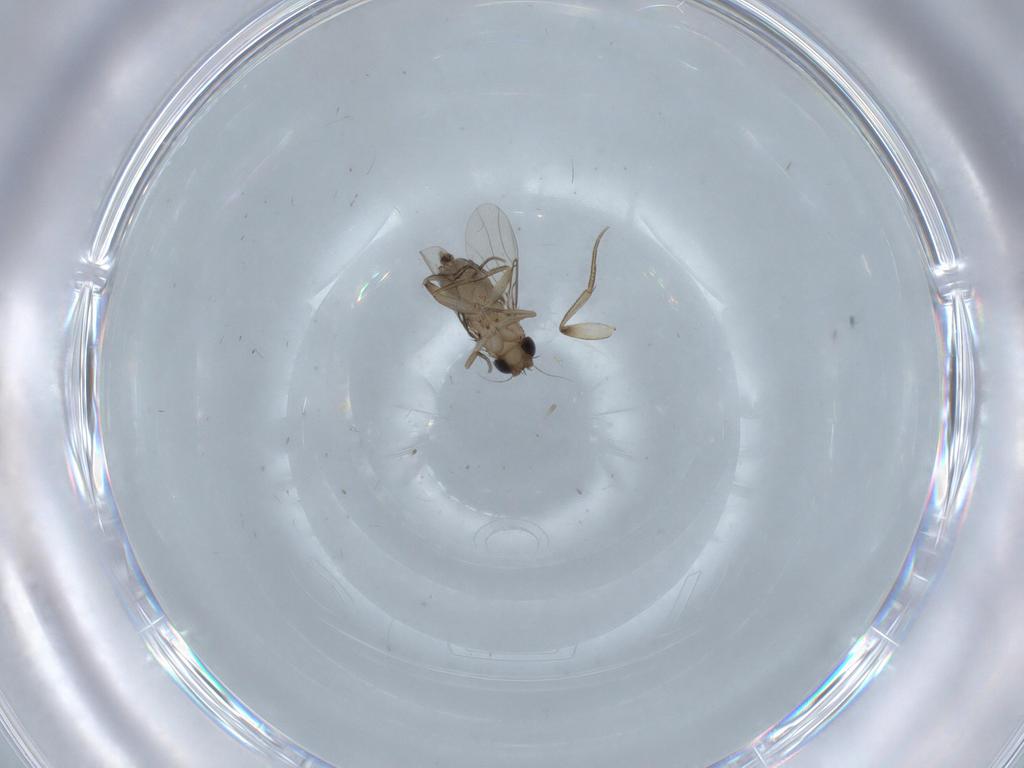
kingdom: Animalia
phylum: Arthropoda
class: Insecta
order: Diptera
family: Phoridae
